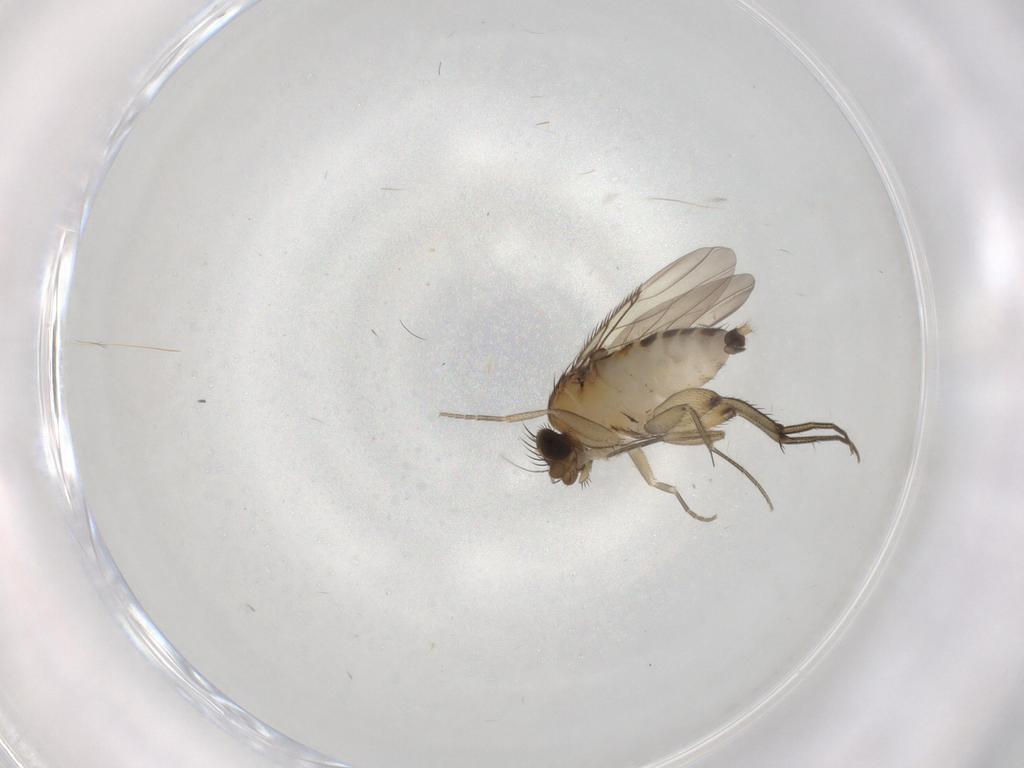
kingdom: Animalia
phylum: Arthropoda
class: Insecta
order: Diptera
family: Phoridae
